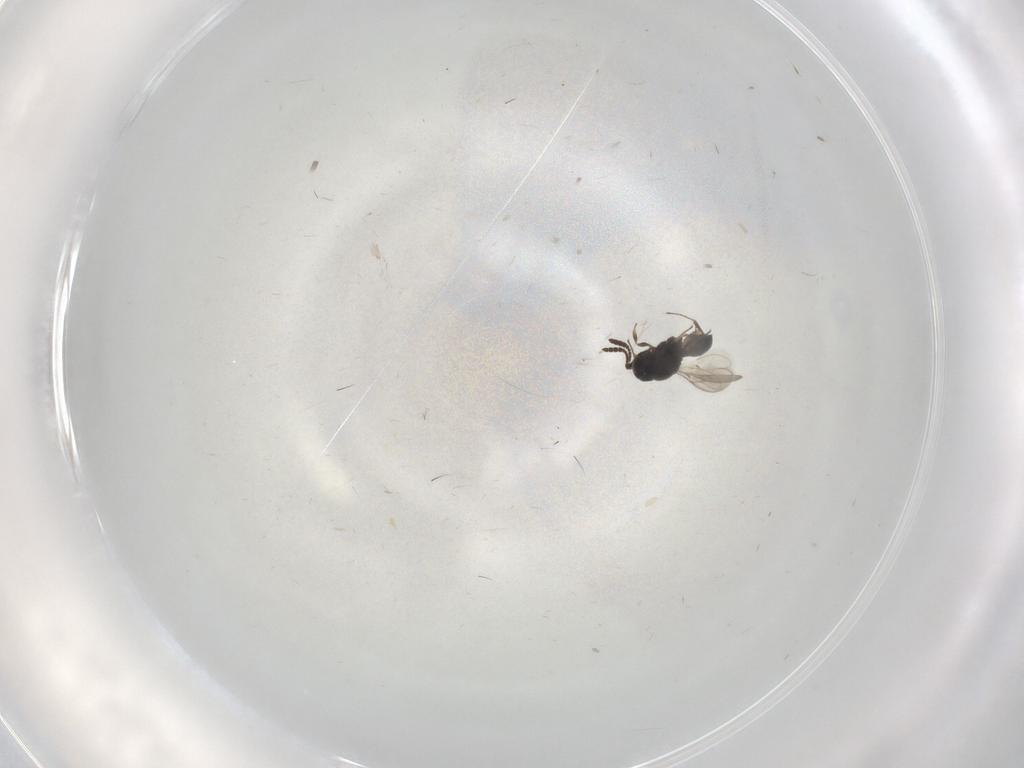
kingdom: Animalia
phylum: Arthropoda
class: Insecta
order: Hymenoptera
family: Scelionidae
